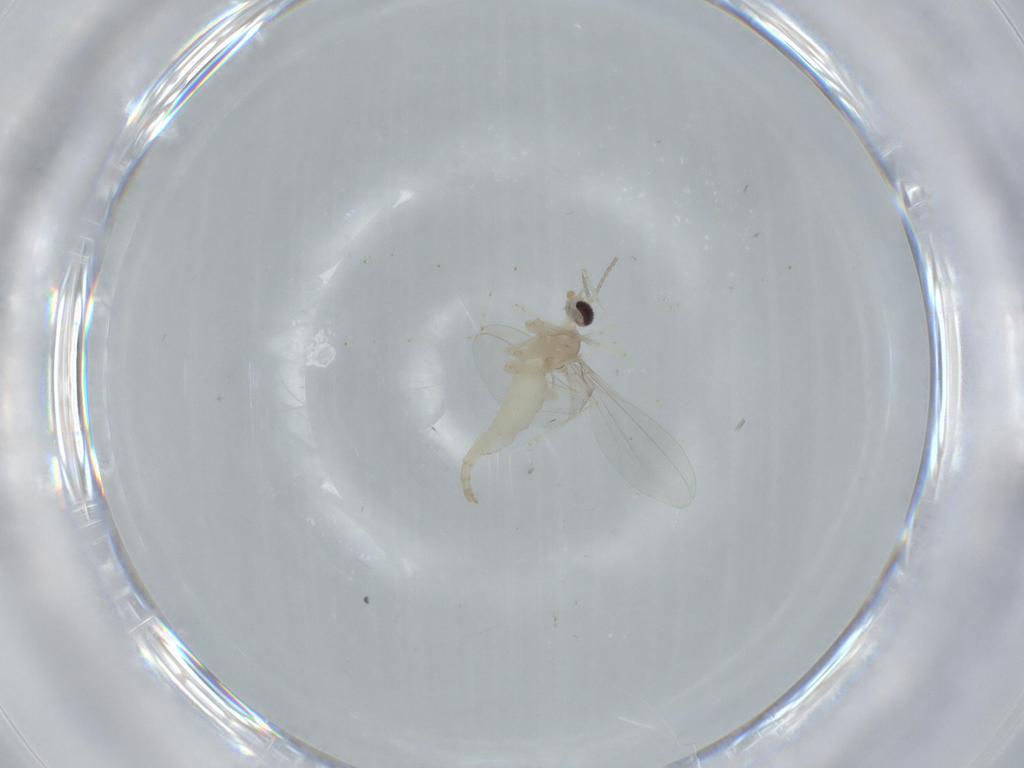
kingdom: Animalia
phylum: Arthropoda
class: Insecta
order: Diptera
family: Cecidomyiidae
